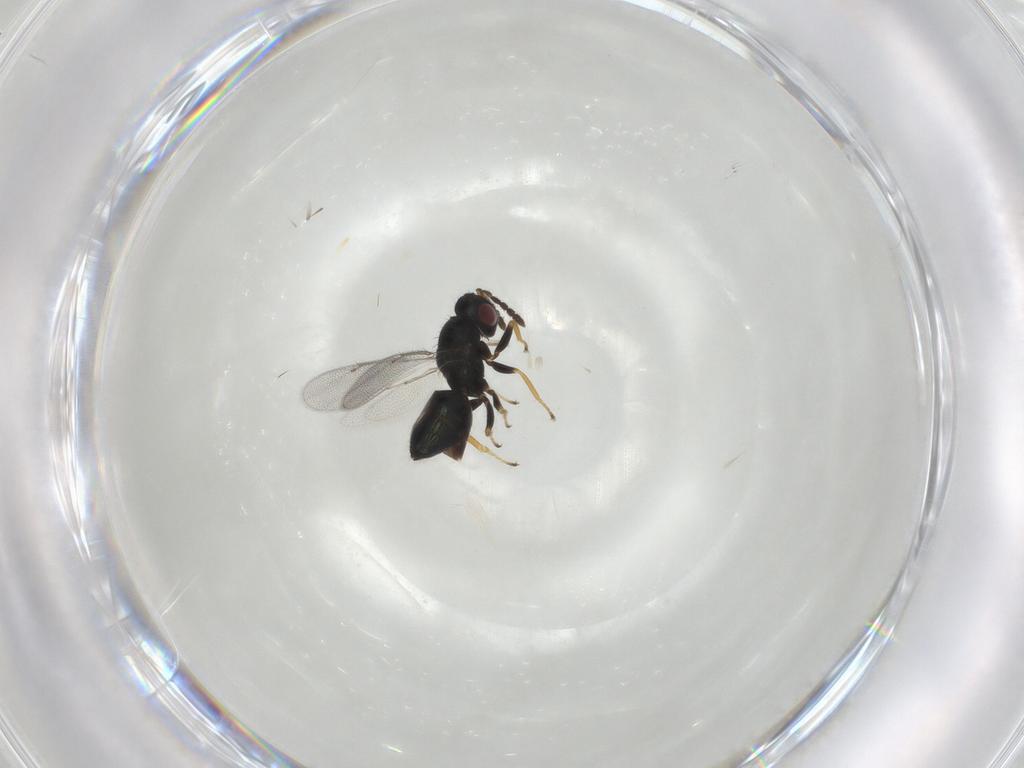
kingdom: Animalia
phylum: Arthropoda
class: Insecta
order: Hymenoptera
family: Eulophidae
